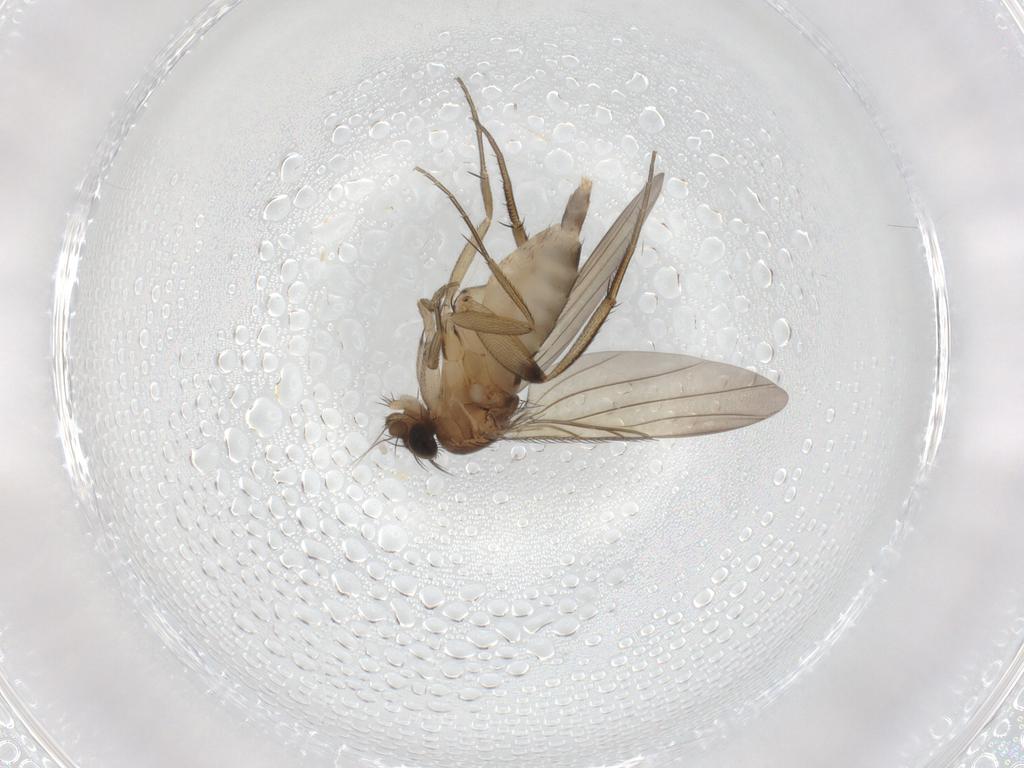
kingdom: Animalia
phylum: Arthropoda
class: Insecta
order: Diptera
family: Phoridae
